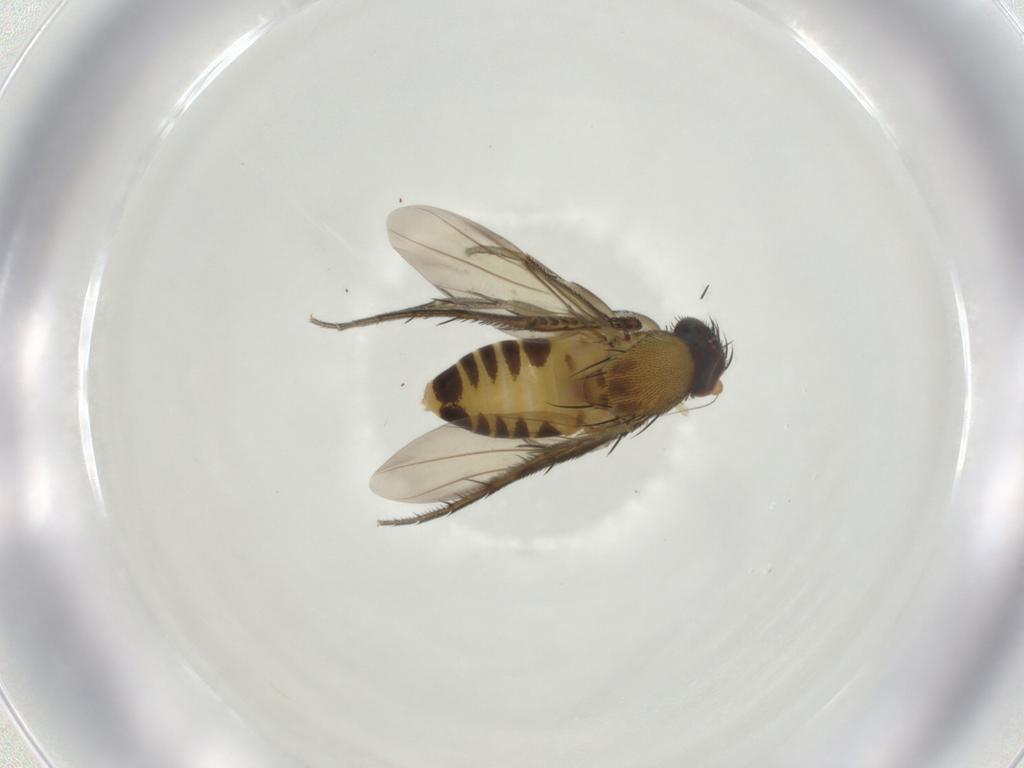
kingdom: Animalia
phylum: Arthropoda
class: Insecta
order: Diptera
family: Phoridae
